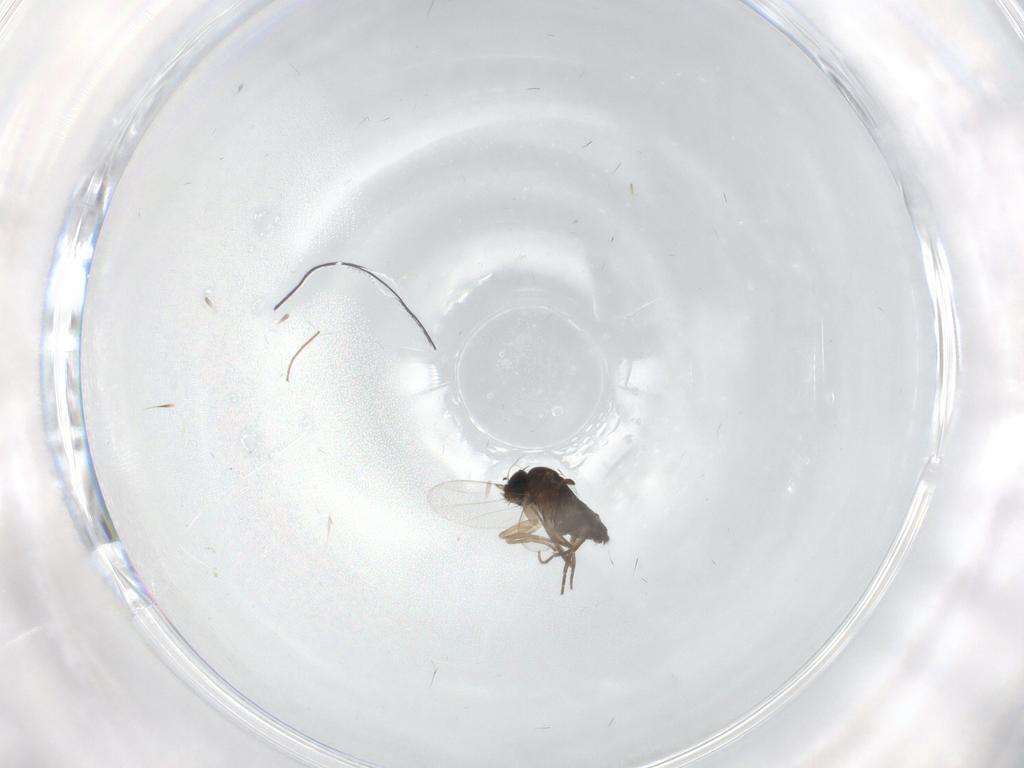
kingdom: Animalia
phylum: Arthropoda
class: Insecta
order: Diptera
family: Phoridae
